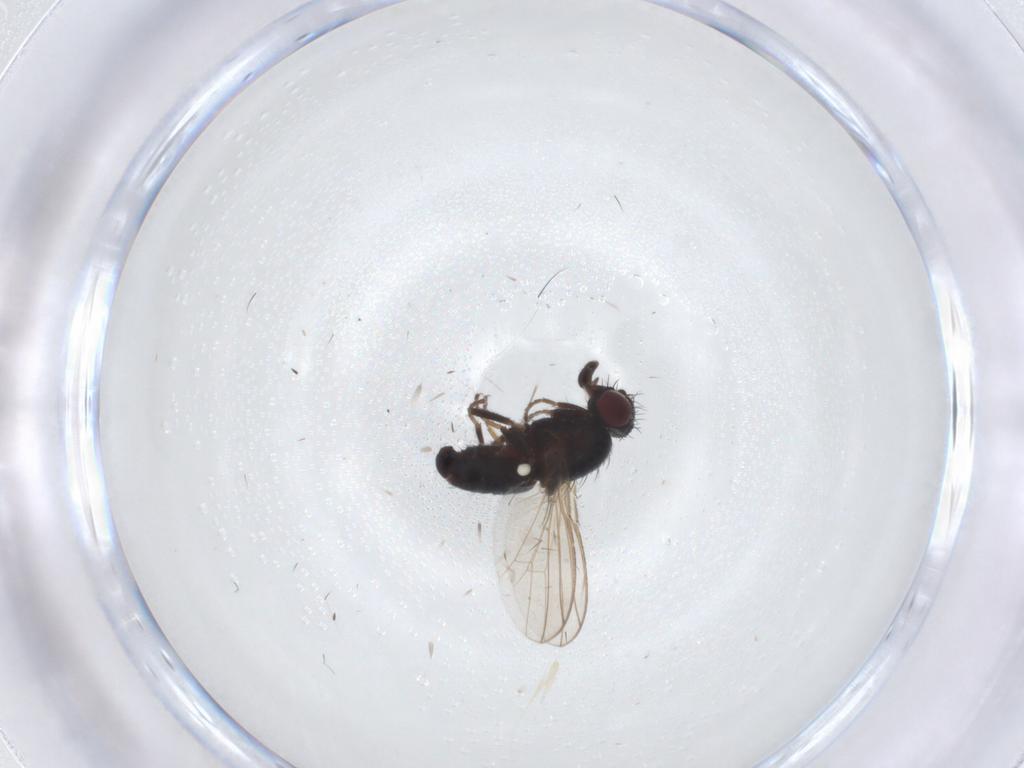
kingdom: Animalia
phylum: Arthropoda
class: Insecta
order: Diptera
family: Carnidae
